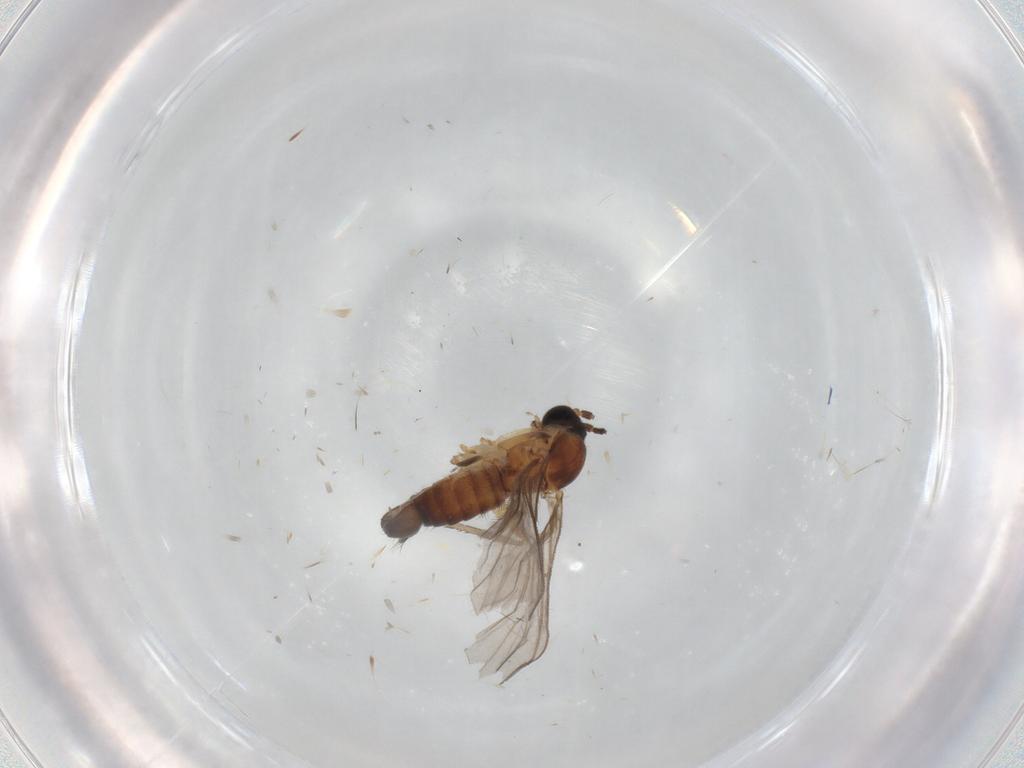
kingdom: Animalia
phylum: Arthropoda
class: Insecta
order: Diptera
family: Sciaridae
